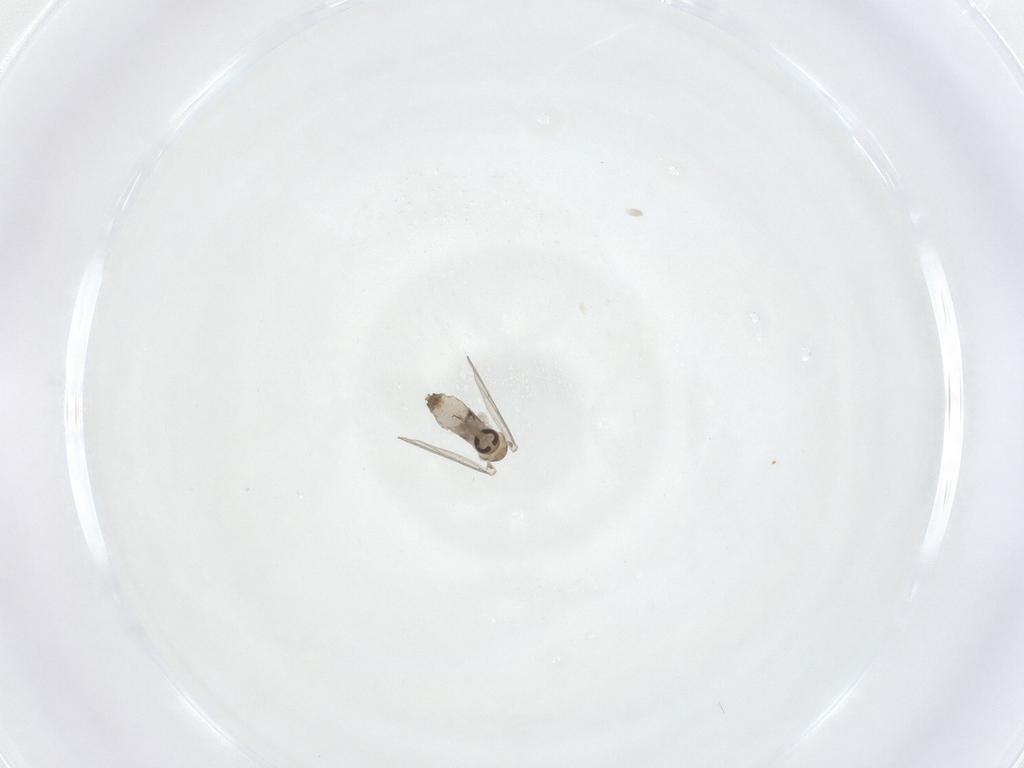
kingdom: Animalia
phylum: Arthropoda
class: Insecta
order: Diptera
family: Psychodidae
